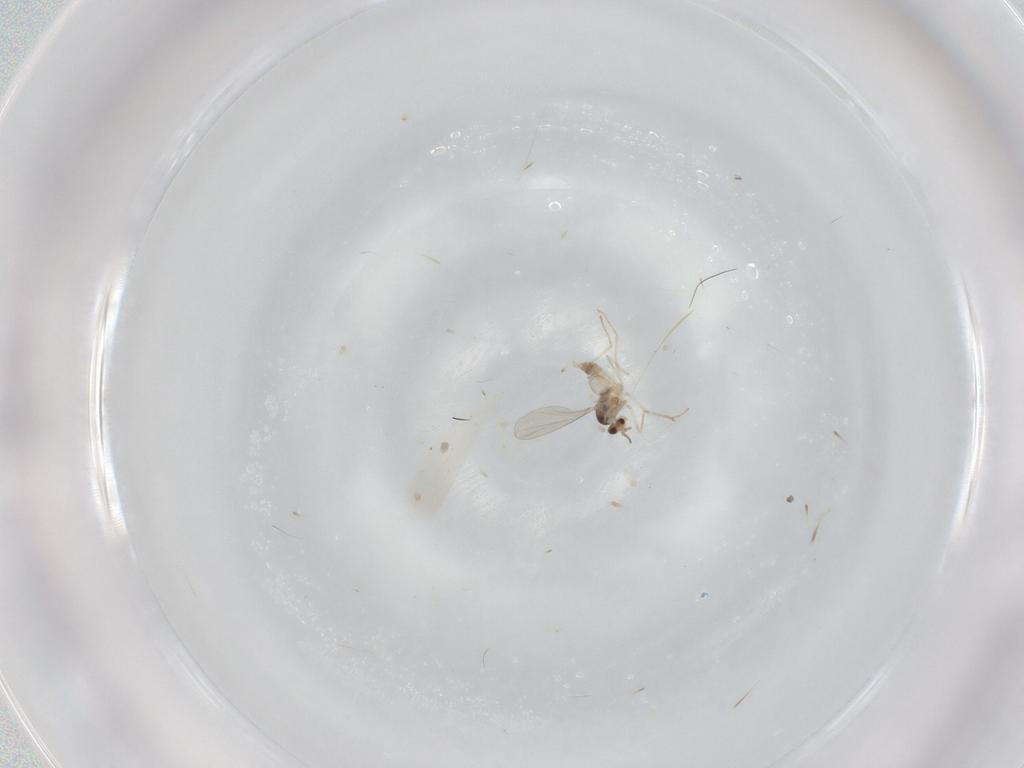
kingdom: Animalia
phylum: Arthropoda
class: Insecta
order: Diptera
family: Cecidomyiidae
